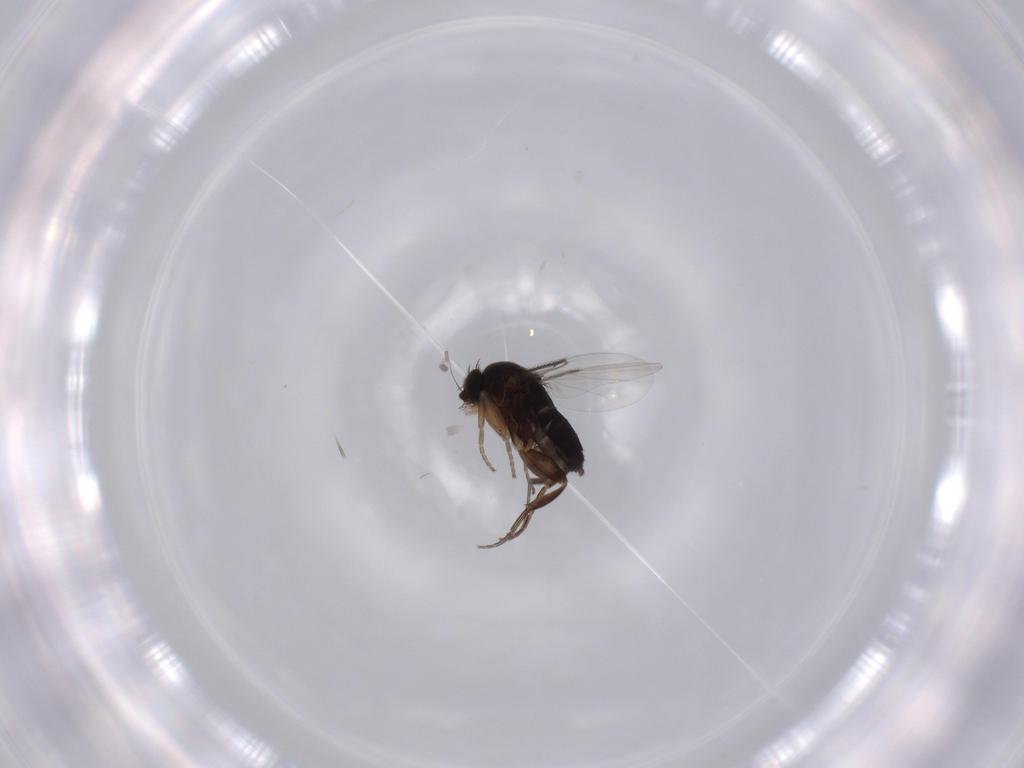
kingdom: Animalia
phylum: Arthropoda
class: Insecta
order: Diptera
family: Phoridae
